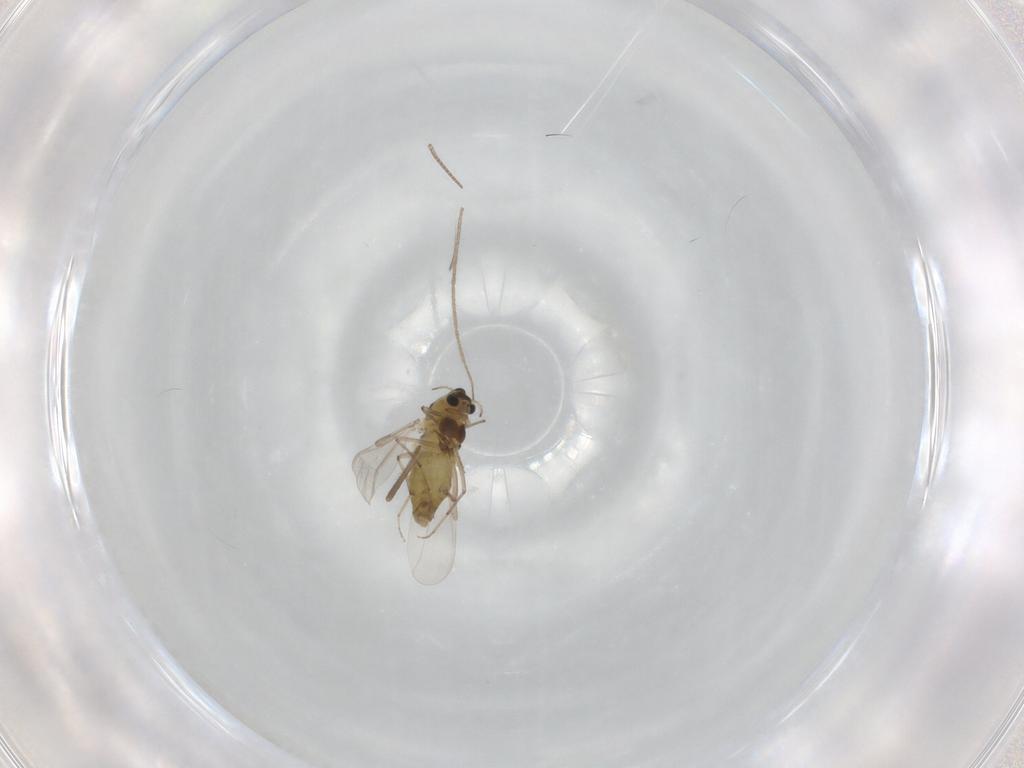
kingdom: Animalia
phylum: Arthropoda
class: Insecta
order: Diptera
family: Chironomidae
